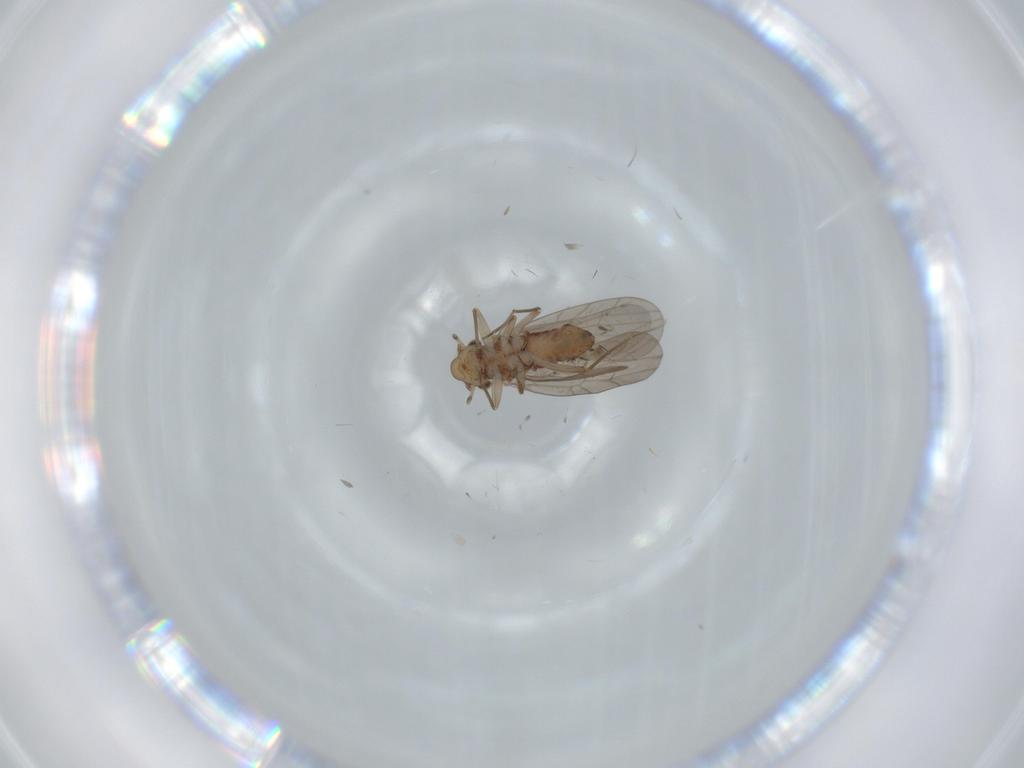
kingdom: Animalia
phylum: Arthropoda
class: Insecta
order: Psocodea
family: Lepidopsocidae
